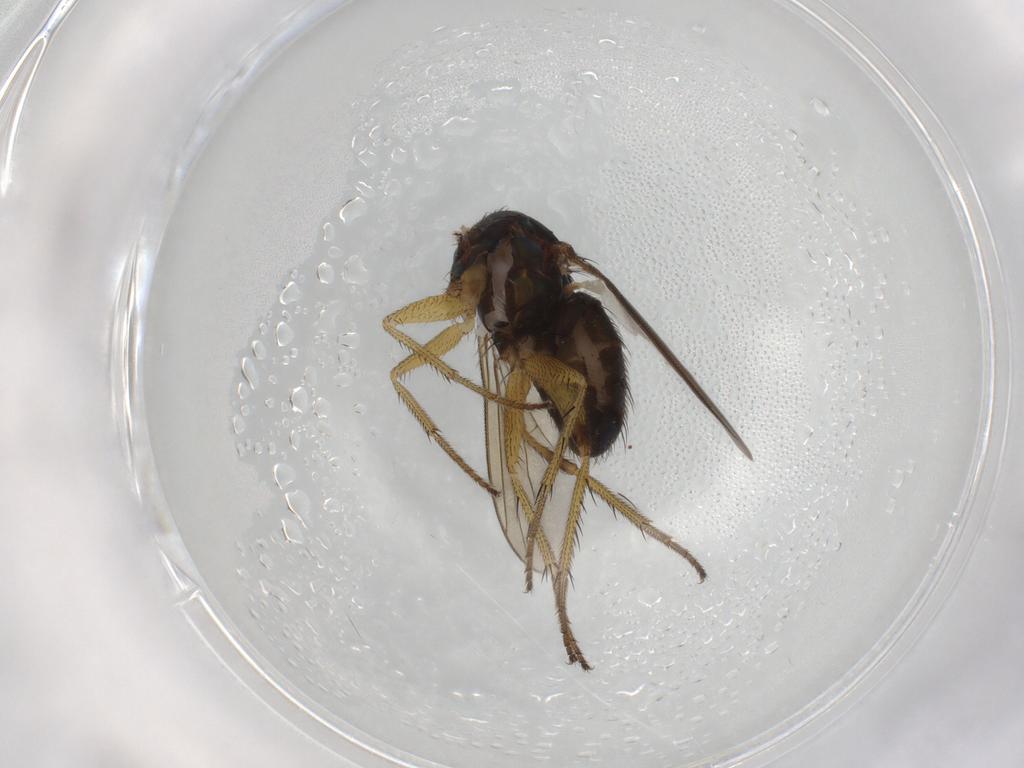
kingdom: Animalia
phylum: Arthropoda
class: Insecta
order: Diptera
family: Dolichopodidae
